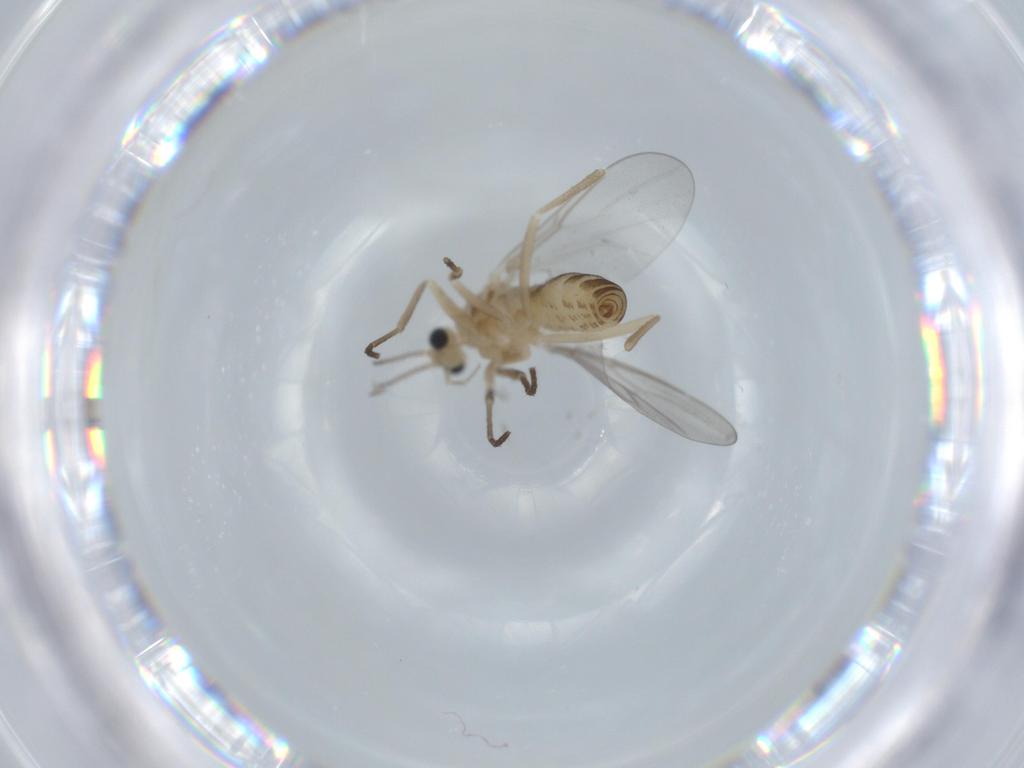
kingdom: Animalia
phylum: Arthropoda
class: Insecta
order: Diptera
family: Cecidomyiidae
